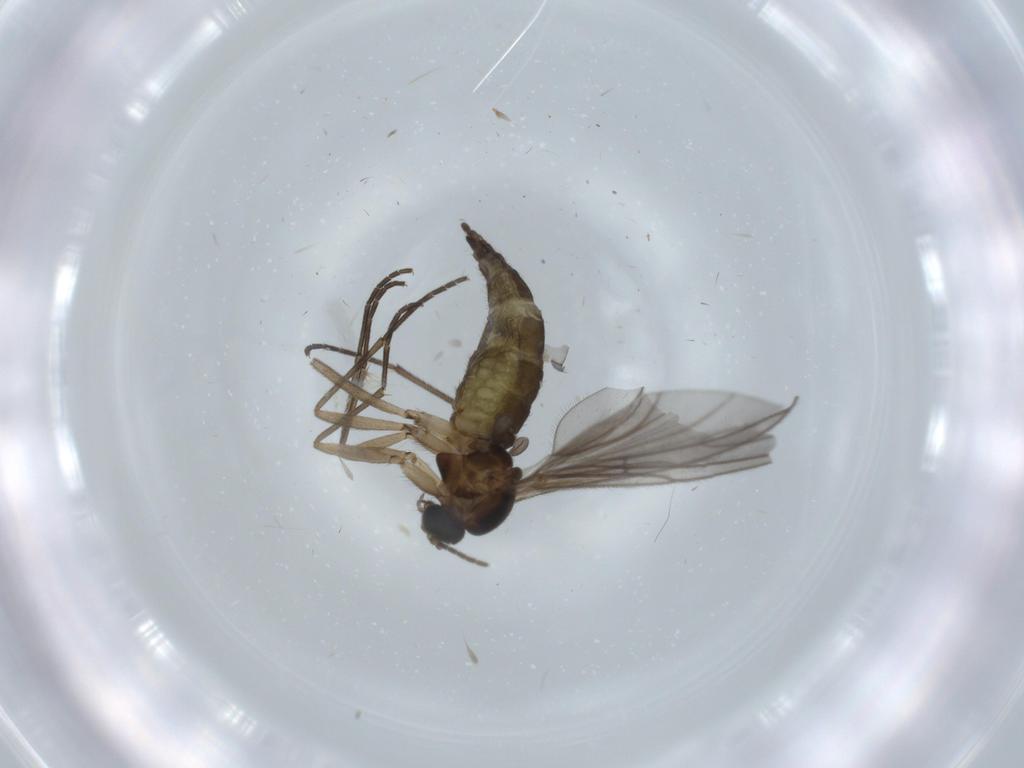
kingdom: Animalia
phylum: Arthropoda
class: Insecta
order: Diptera
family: Sciaridae
